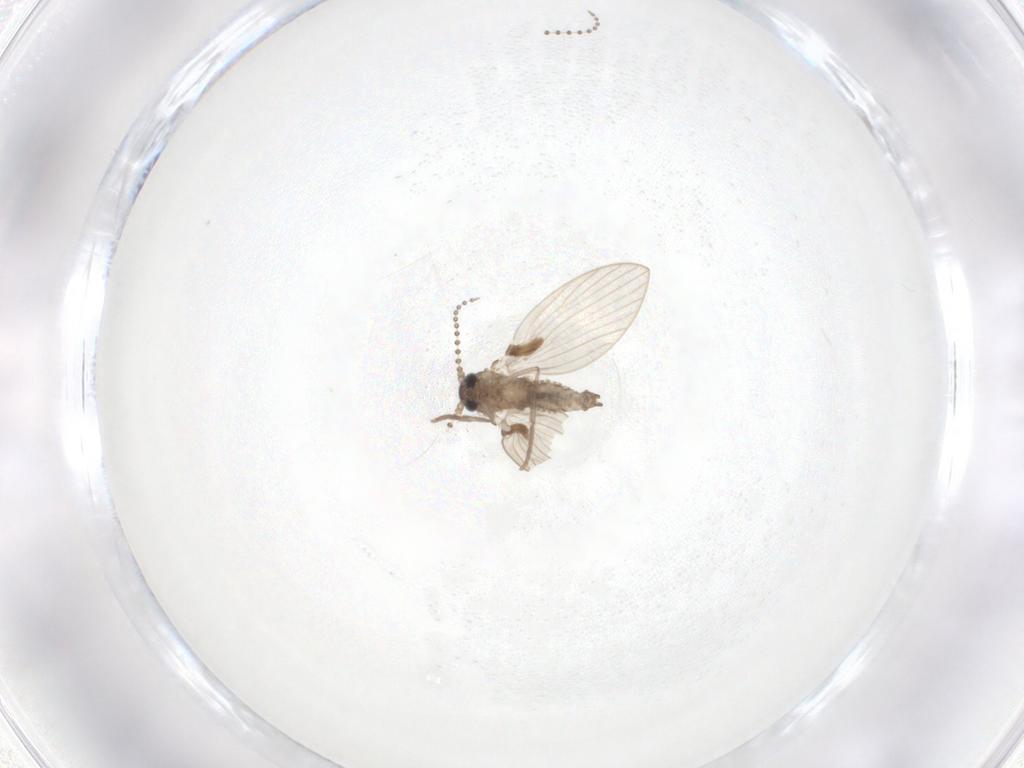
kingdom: Animalia
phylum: Arthropoda
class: Insecta
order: Diptera
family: Psychodidae
